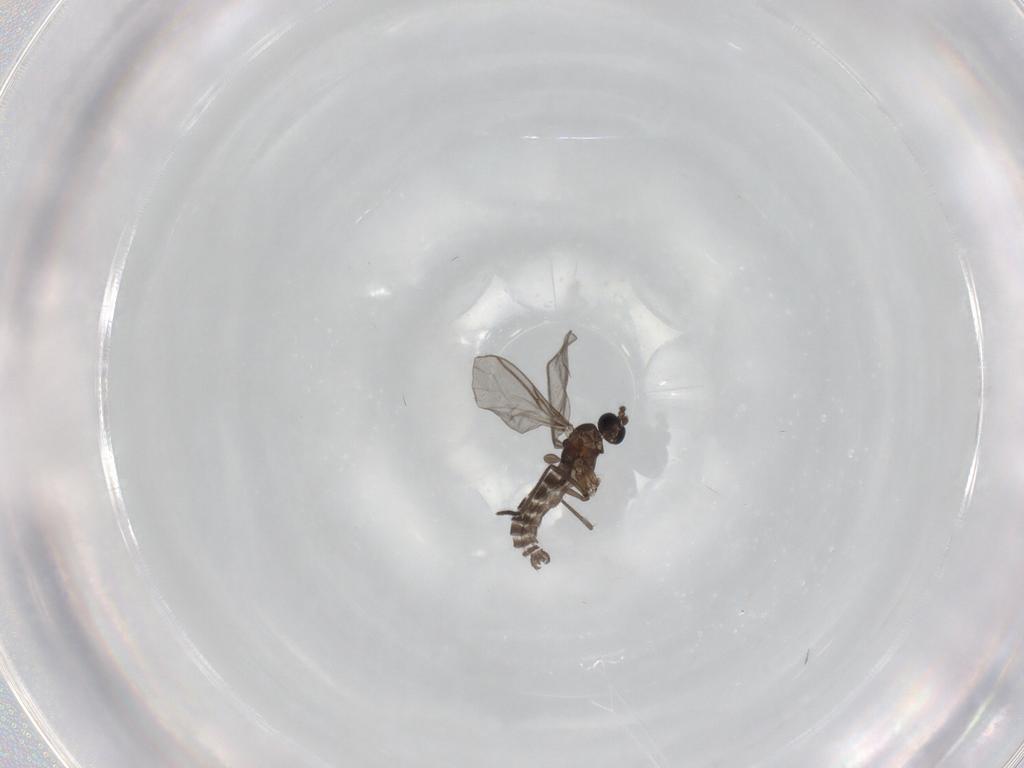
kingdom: Animalia
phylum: Arthropoda
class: Insecta
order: Diptera
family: Sciaridae
